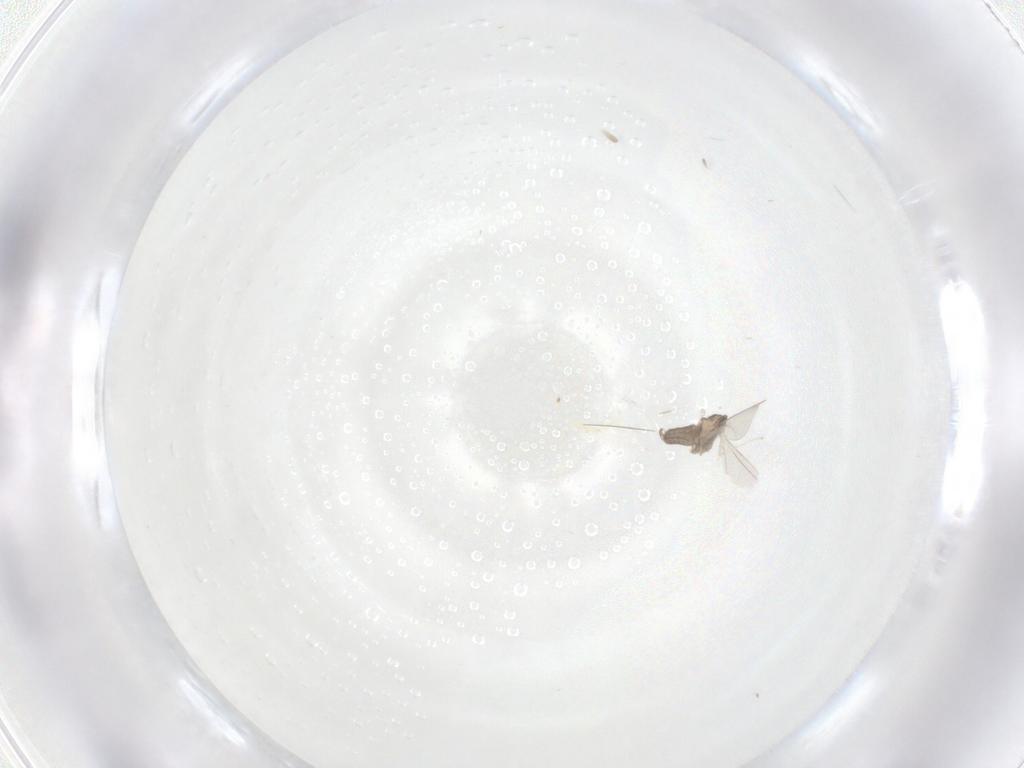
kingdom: Animalia
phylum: Arthropoda
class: Insecta
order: Diptera
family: Cecidomyiidae
